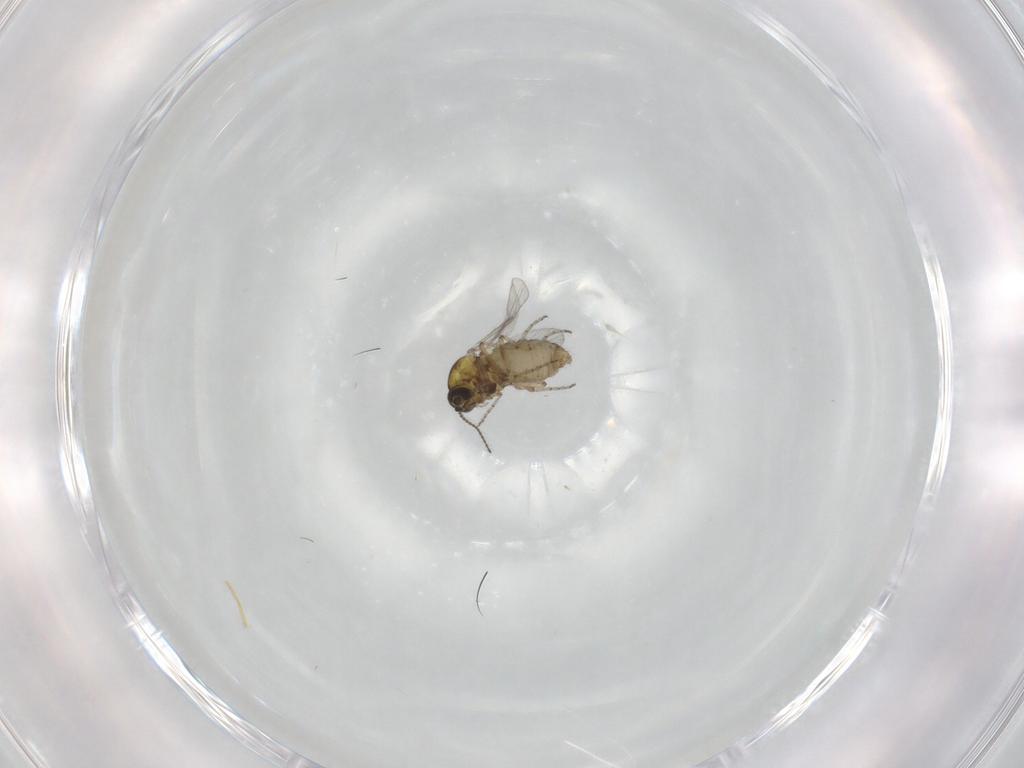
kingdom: Animalia
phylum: Arthropoda
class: Insecta
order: Diptera
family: Ceratopogonidae
